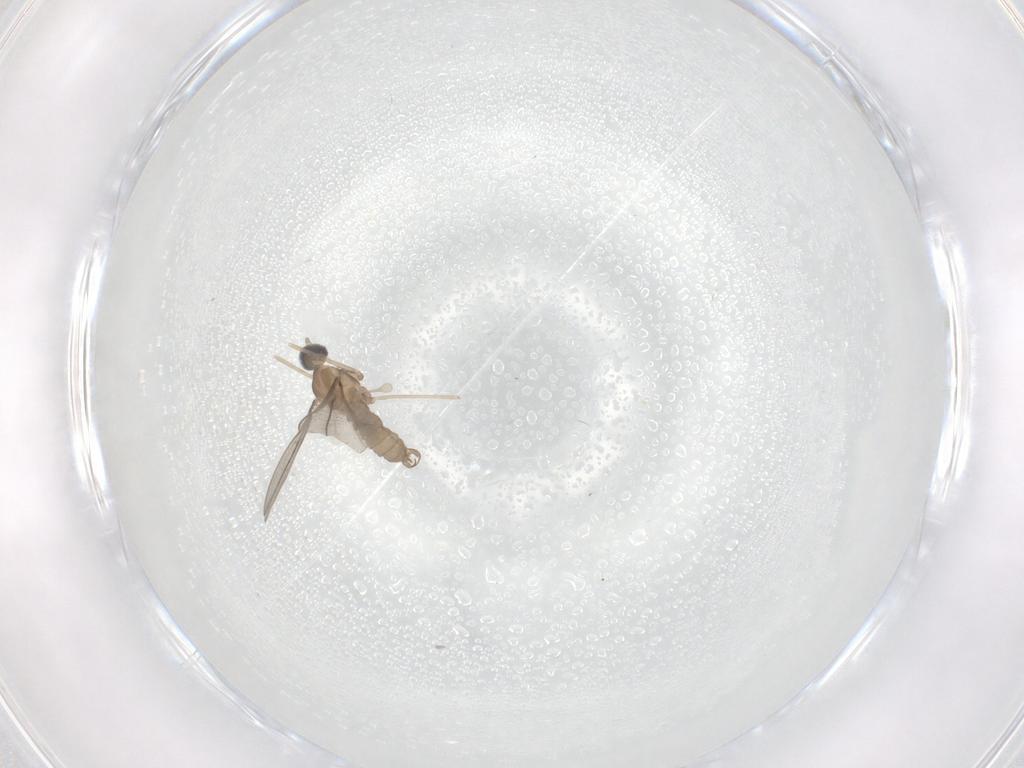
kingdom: Animalia
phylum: Arthropoda
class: Insecta
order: Diptera
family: Cecidomyiidae
